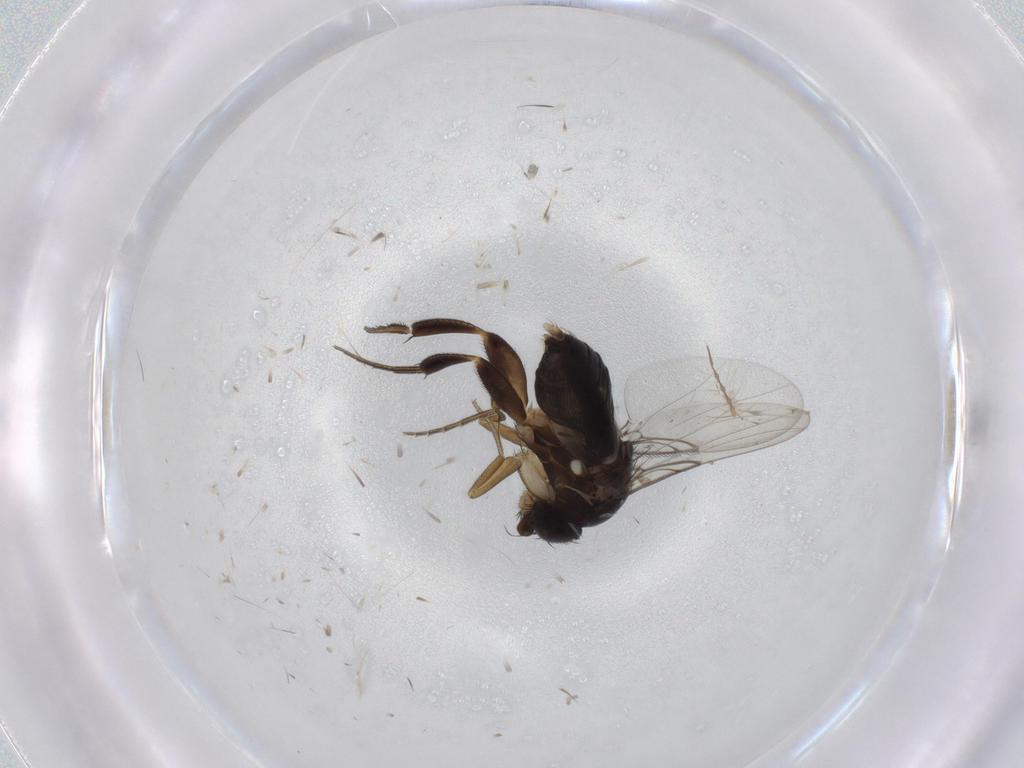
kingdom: Animalia
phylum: Arthropoda
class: Insecta
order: Diptera
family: Phoridae
